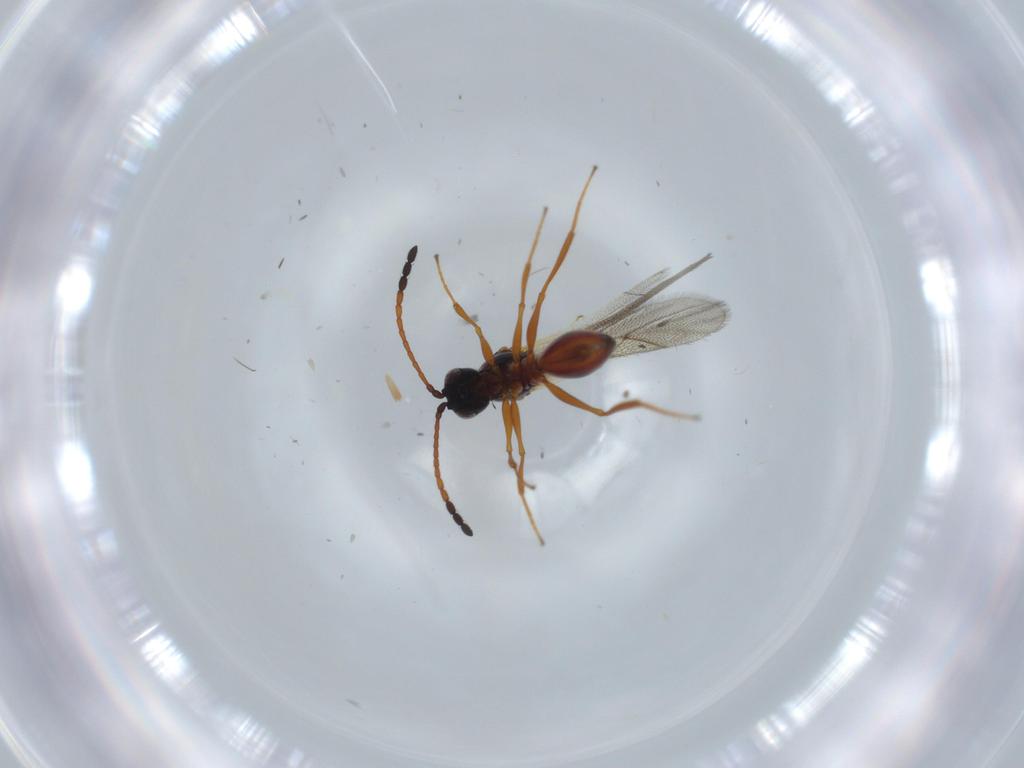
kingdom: Animalia
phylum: Arthropoda
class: Insecta
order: Hymenoptera
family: Figitidae
